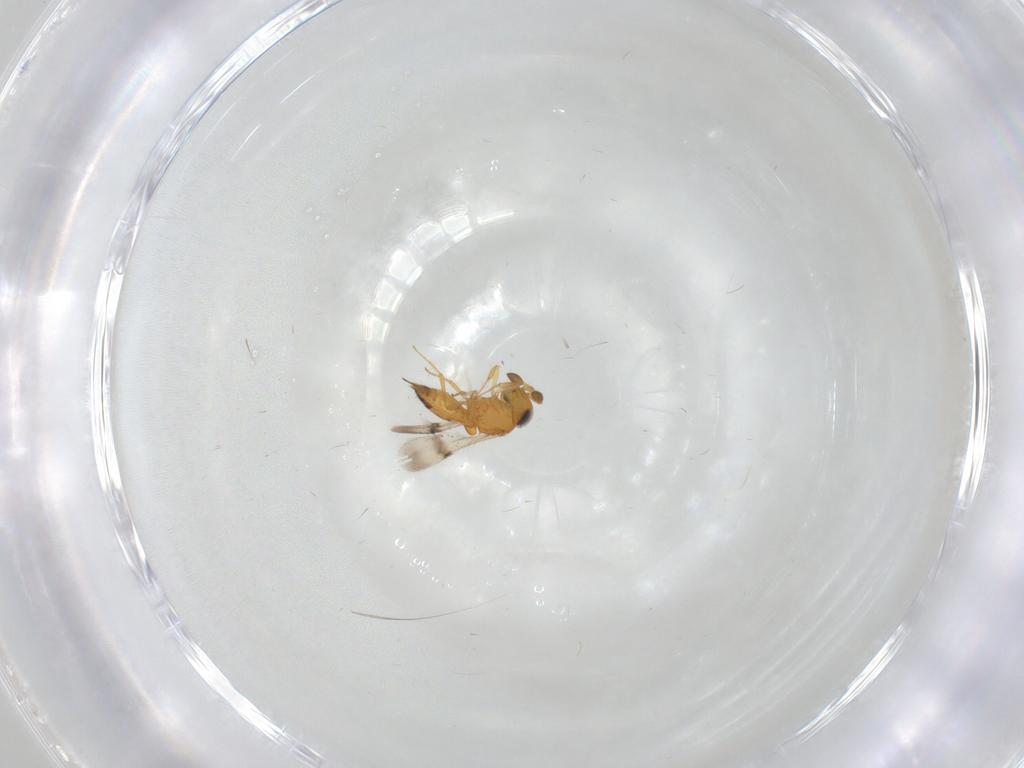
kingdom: Animalia
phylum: Arthropoda
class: Insecta
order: Hymenoptera
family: Scelionidae
